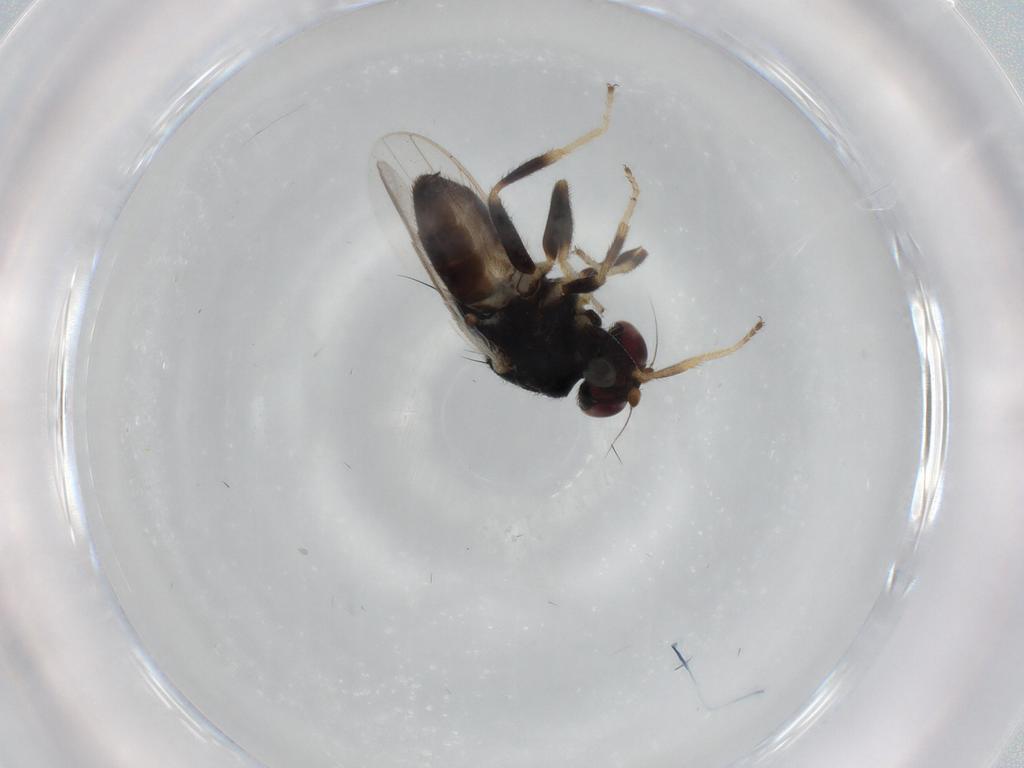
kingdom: Animalia
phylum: Arthropoda
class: Insecta
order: Diptera
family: Chloropidae
